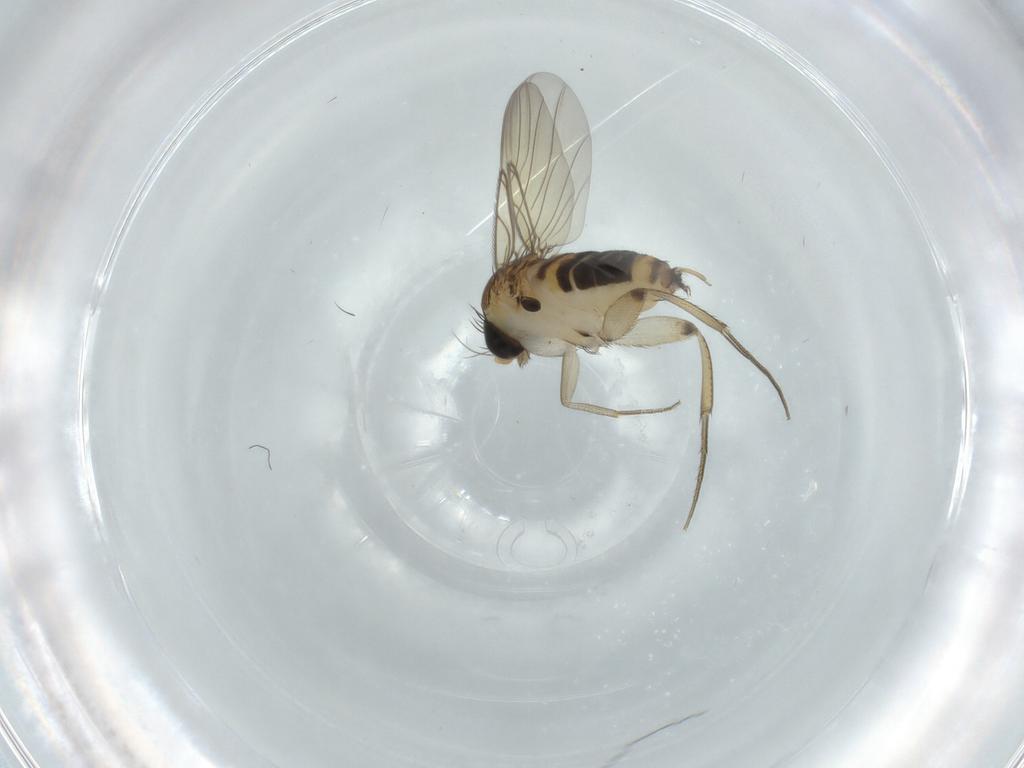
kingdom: Animalia
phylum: Arthropoda
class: Insecta
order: Diptera
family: Phoridae
